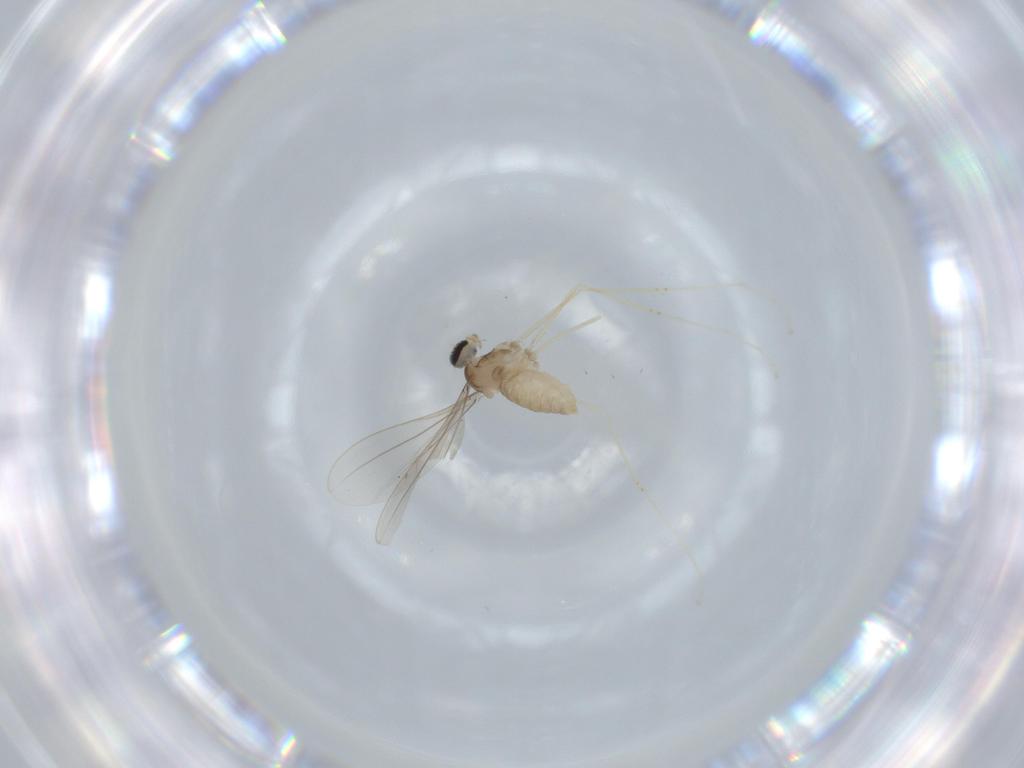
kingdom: Animalia
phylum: Arthropoda
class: Insecta
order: Diptera
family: Cecidomyiidae
